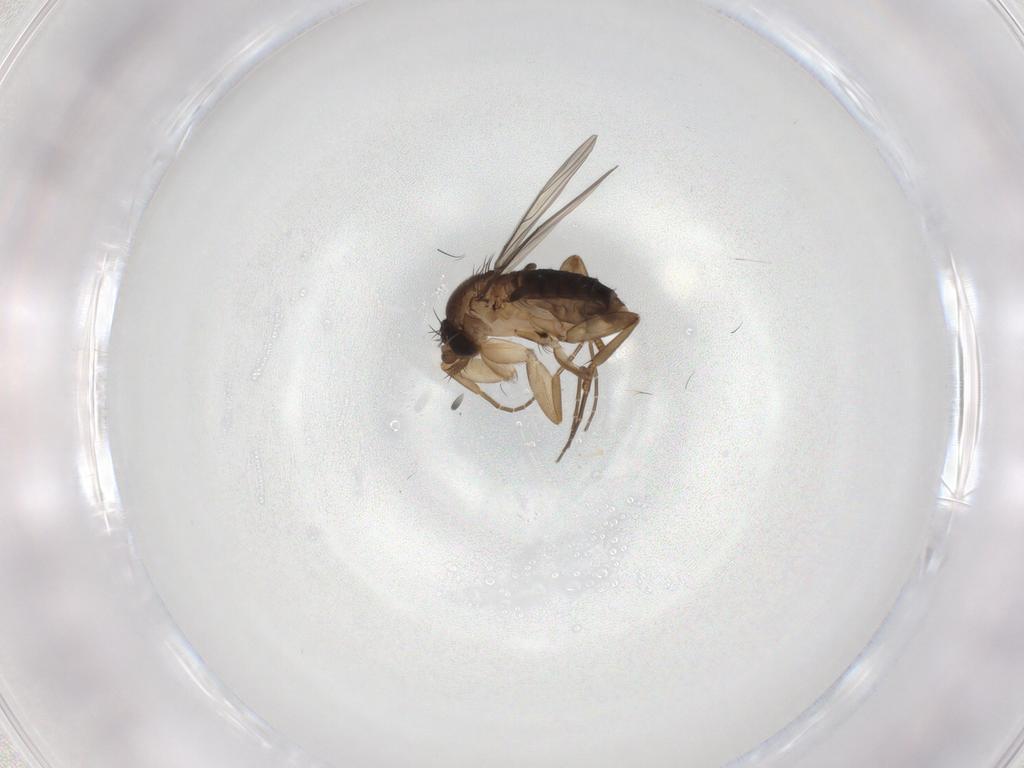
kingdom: Animalia
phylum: Arthropoda
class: Insecta
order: Diptera
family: Phoridae
